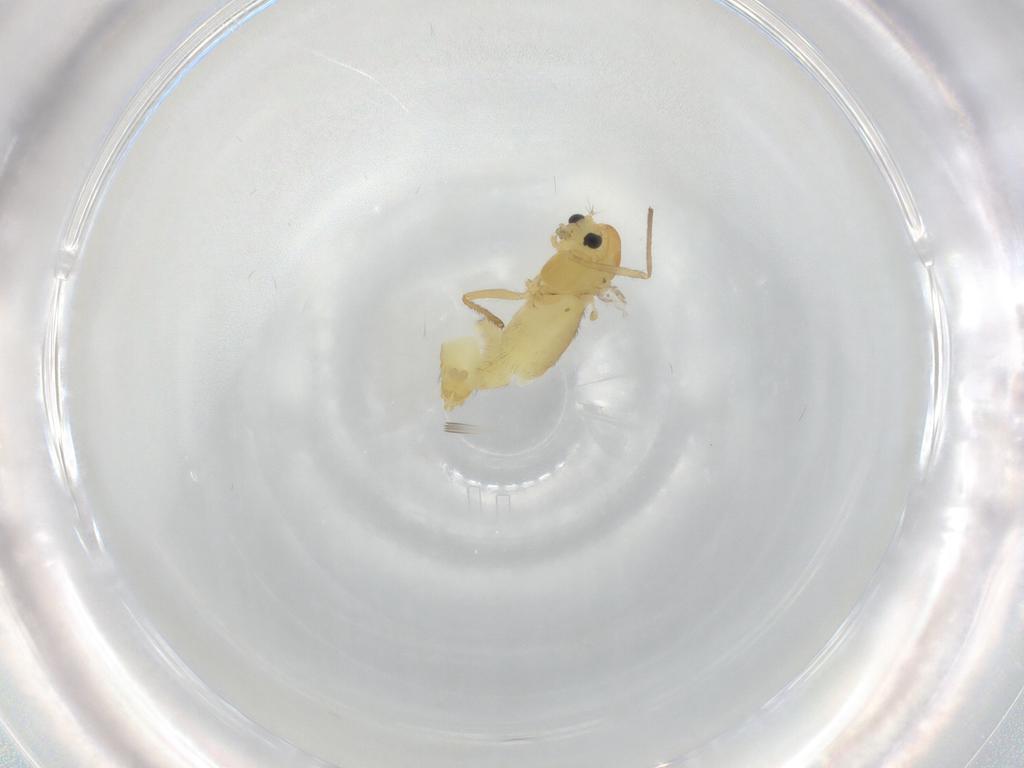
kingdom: Animalia
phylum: Arthropoda
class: Insecta
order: Diptera
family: Chironomidae
